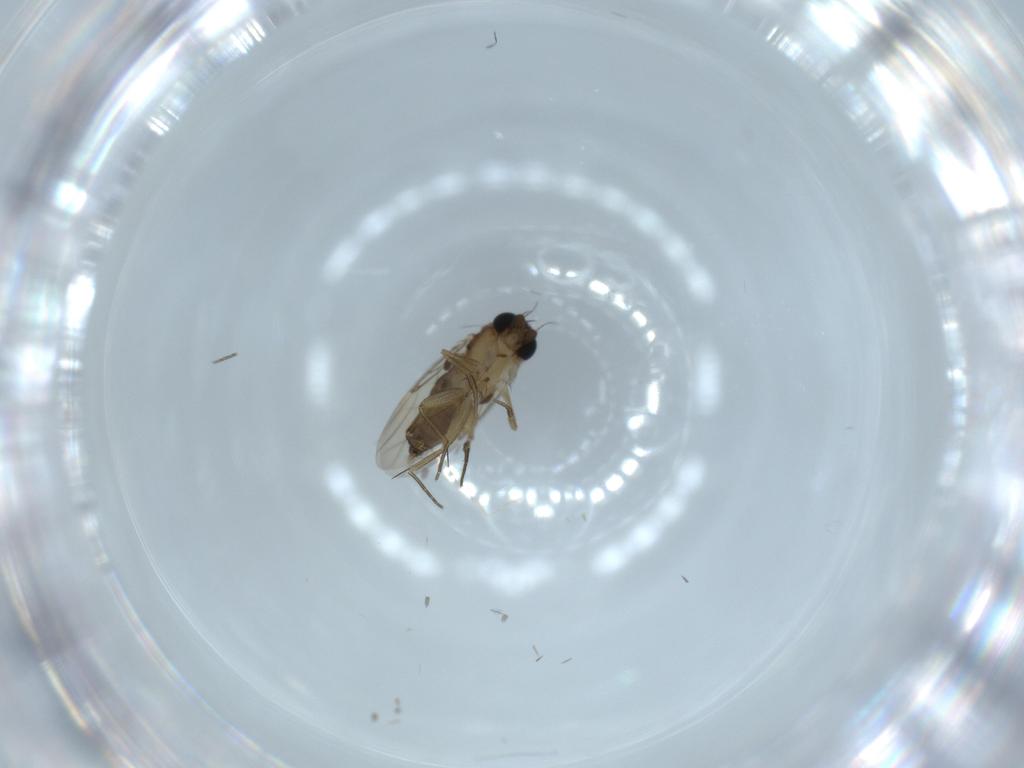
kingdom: Animalia
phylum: Arthropoda
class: Insecta
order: Diptera
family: Phoridae
